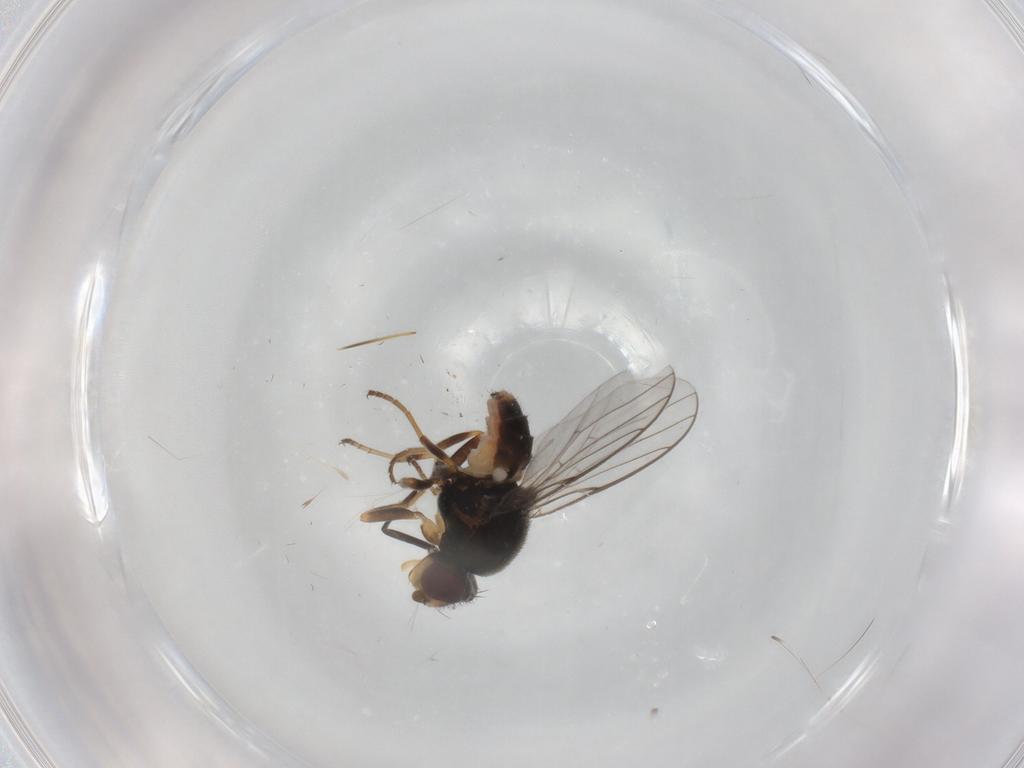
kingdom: Animalia
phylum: Arthropoda
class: Insecta
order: Diptera
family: Chloropidae
